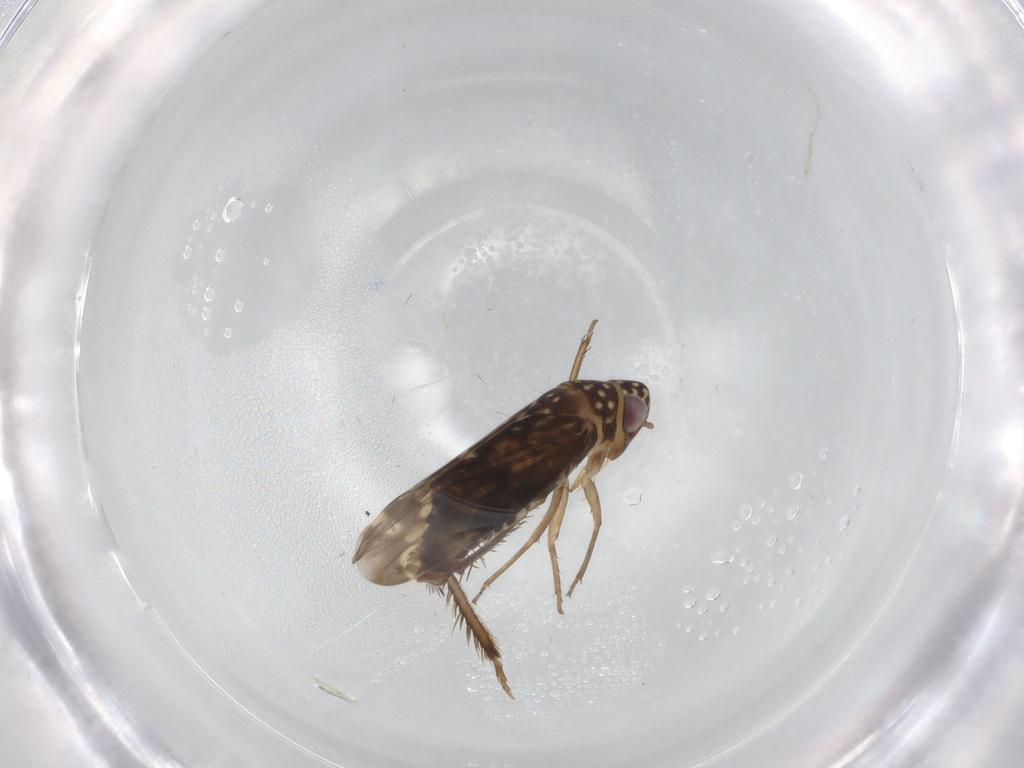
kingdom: Animalia
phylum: Arthropoda
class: Insecta
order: Hemiptera
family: Cicadellidae
